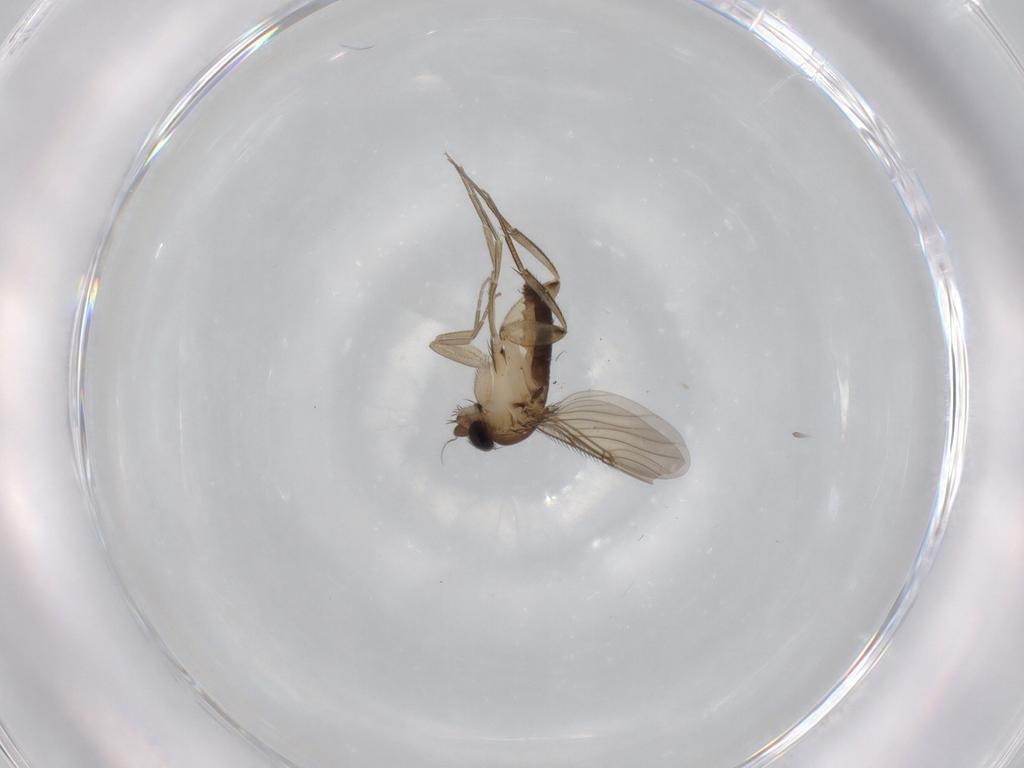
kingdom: Animalia
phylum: Arthropoda
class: Insecta
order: Diptera
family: Phoridae
